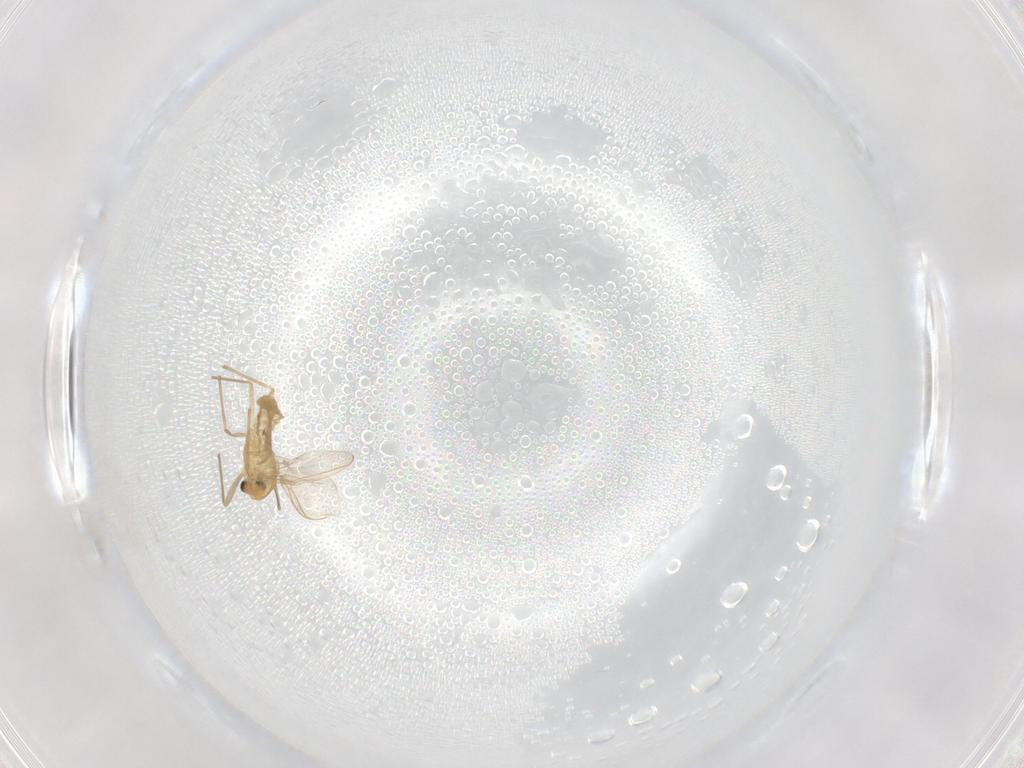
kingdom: Animalia
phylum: Arthropoda
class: Insecta
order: Diptera
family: Chironomidae
